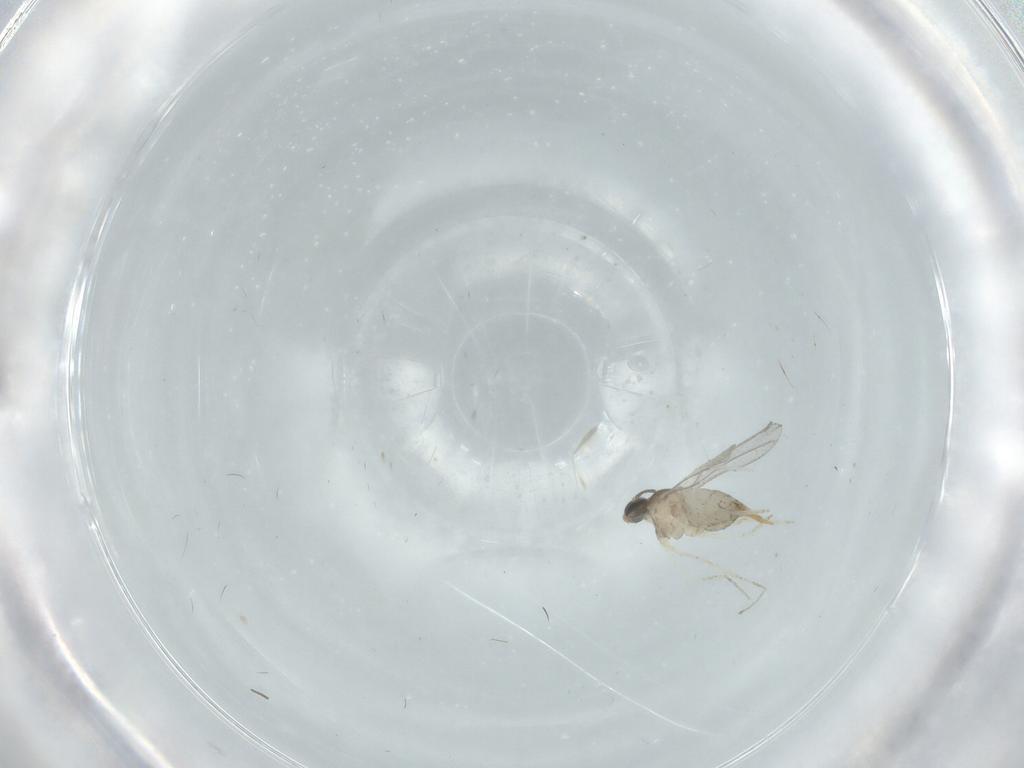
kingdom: Animalia
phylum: Arthropoda
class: Insecta
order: Diptera
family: Cecidomyiidae
